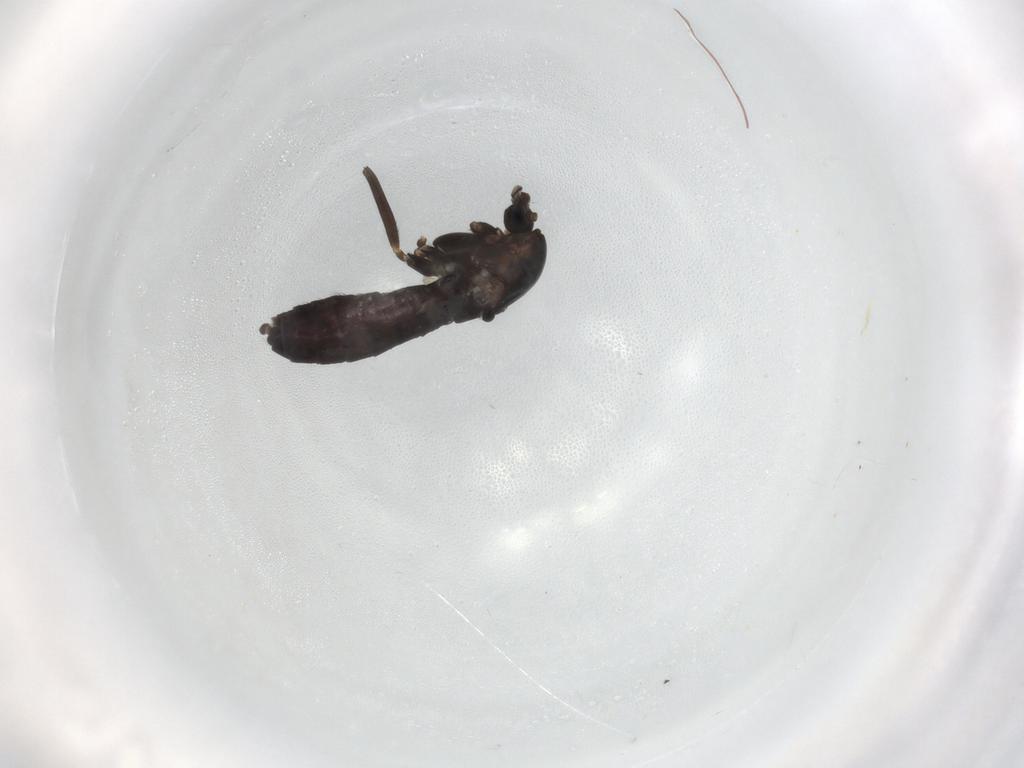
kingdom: Animalia
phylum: Arthropoda
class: Insecta
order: Diptera
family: Chironomidae
